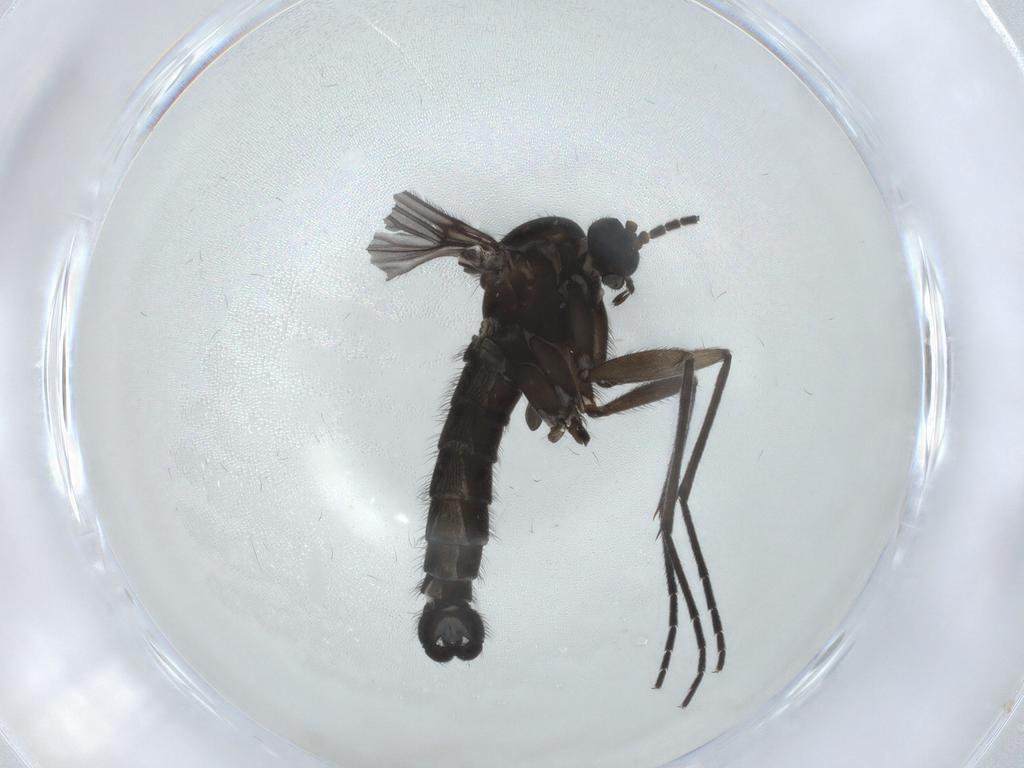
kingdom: Animalia
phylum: Arthropoda
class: Insecta
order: Diptera
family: Sciaridae
